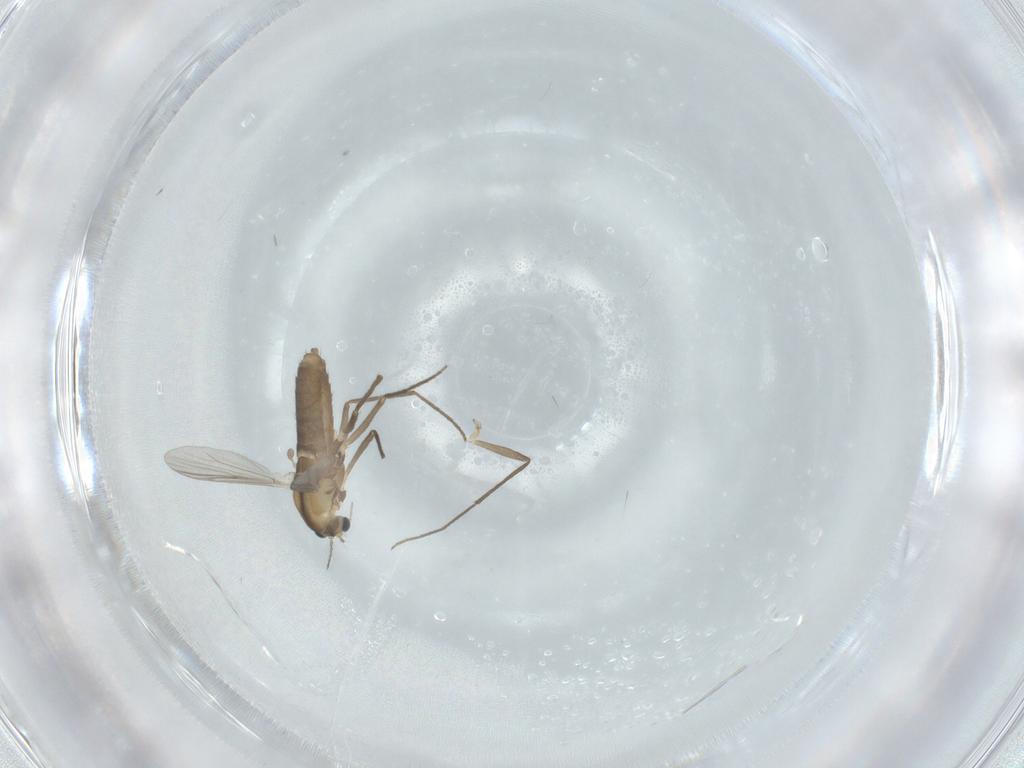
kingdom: Animalia
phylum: Arthropoda
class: Insecta
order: Diptera
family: Chironomidae
